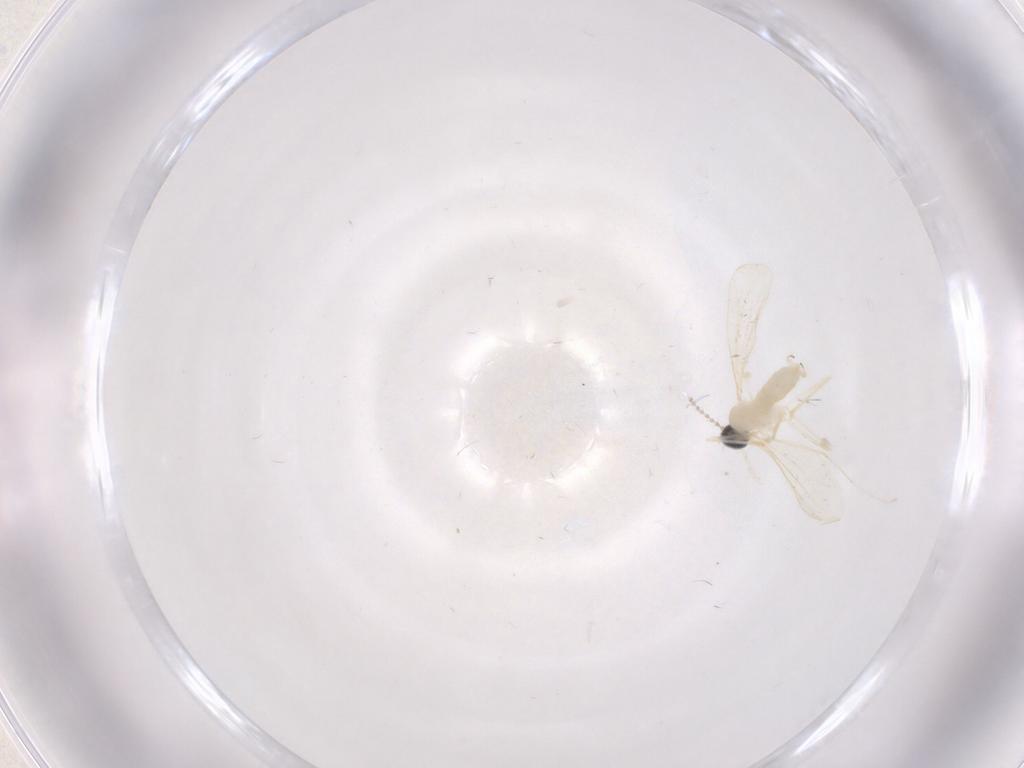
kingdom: Animalia
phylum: Arthropoda
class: Insecta
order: Diptera
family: Cecidomyiidae
